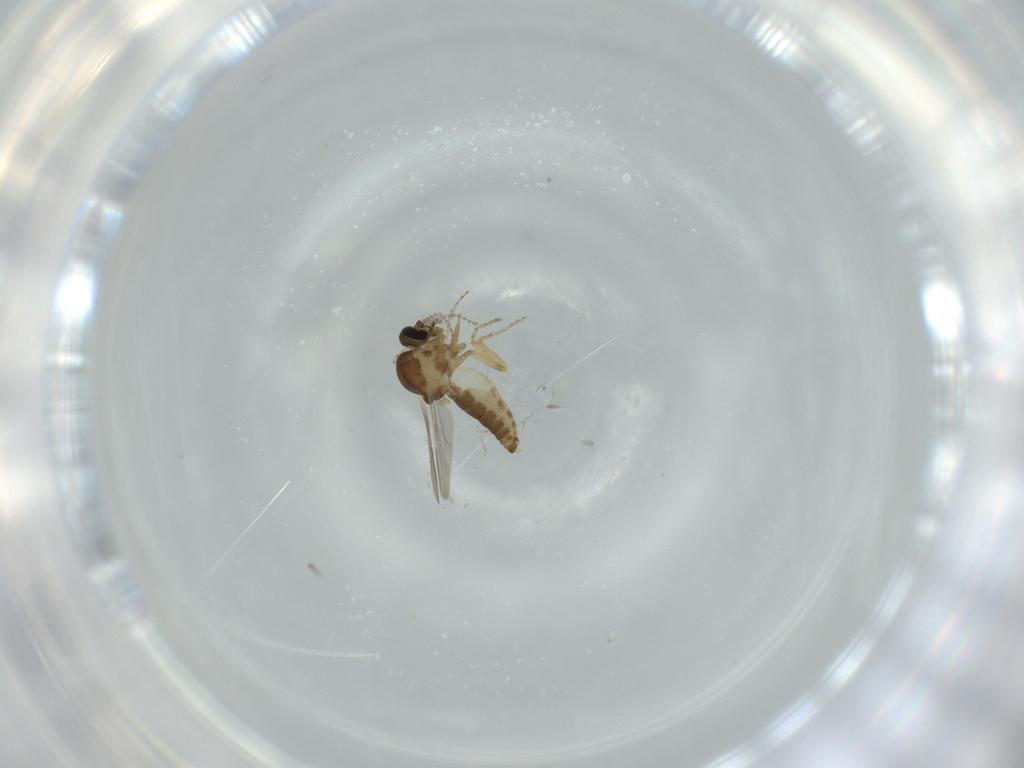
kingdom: Animalia
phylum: Arthropoda
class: Insecta
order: Diptera
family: Ceratopogonidae
